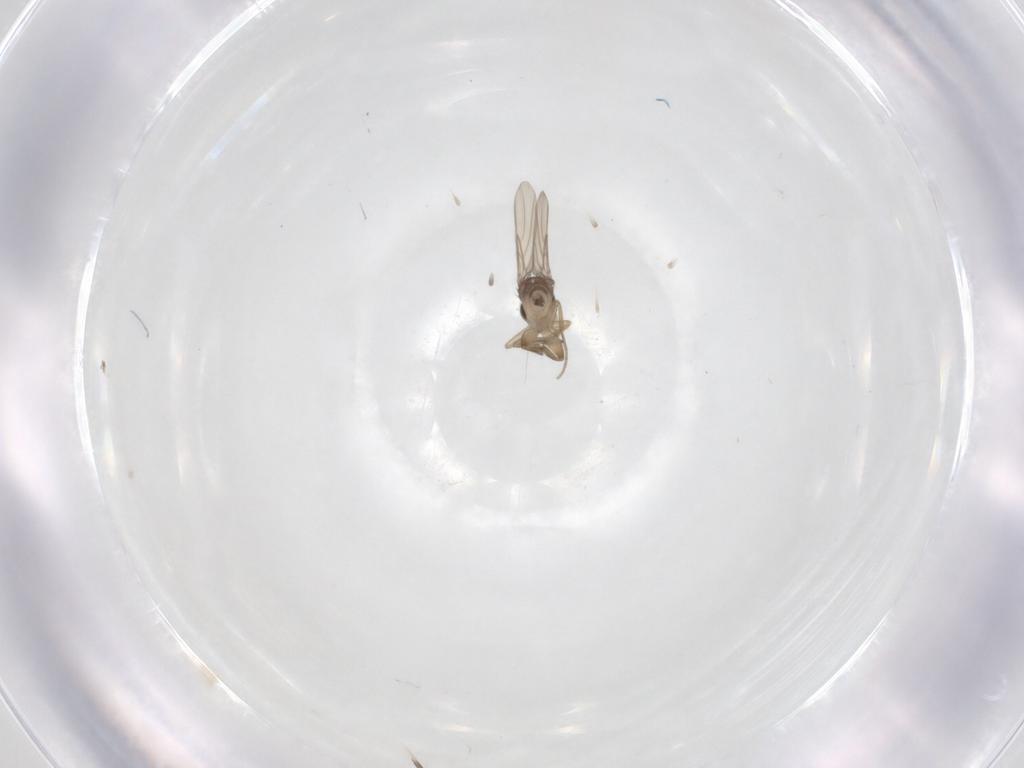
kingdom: Animalia
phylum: Arthropoda
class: Insecta
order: Diptera
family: Phoridae
